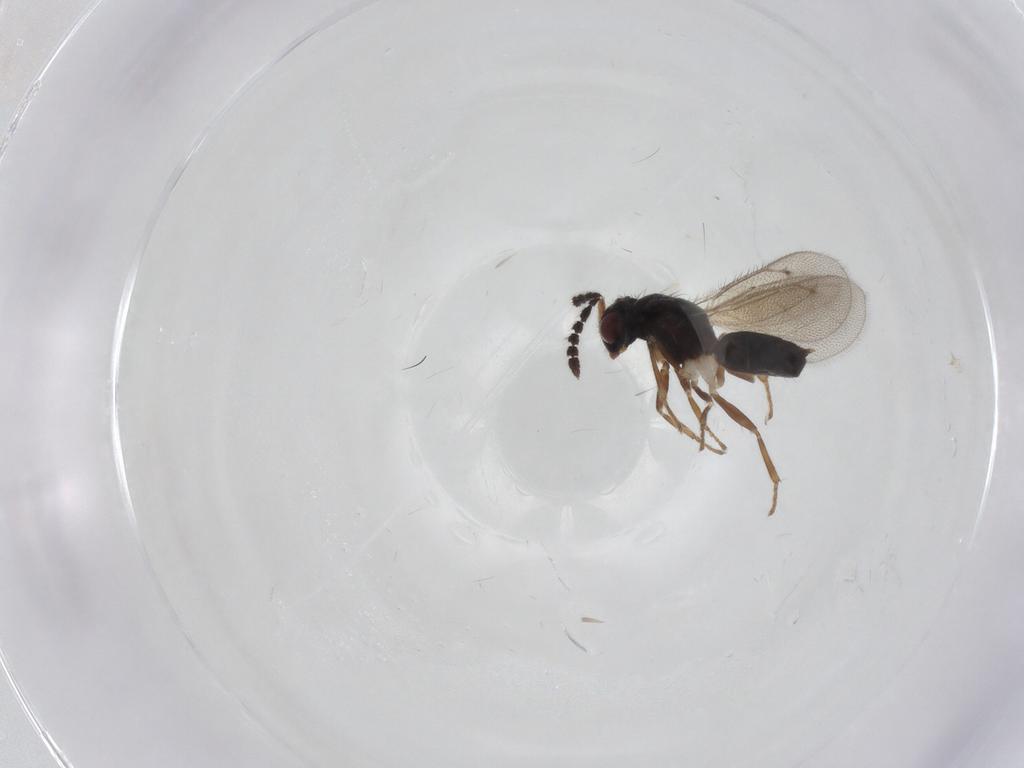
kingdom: Animalia
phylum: Arthropoda
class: Insecta
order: Hymenoptera
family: Eulophidae
